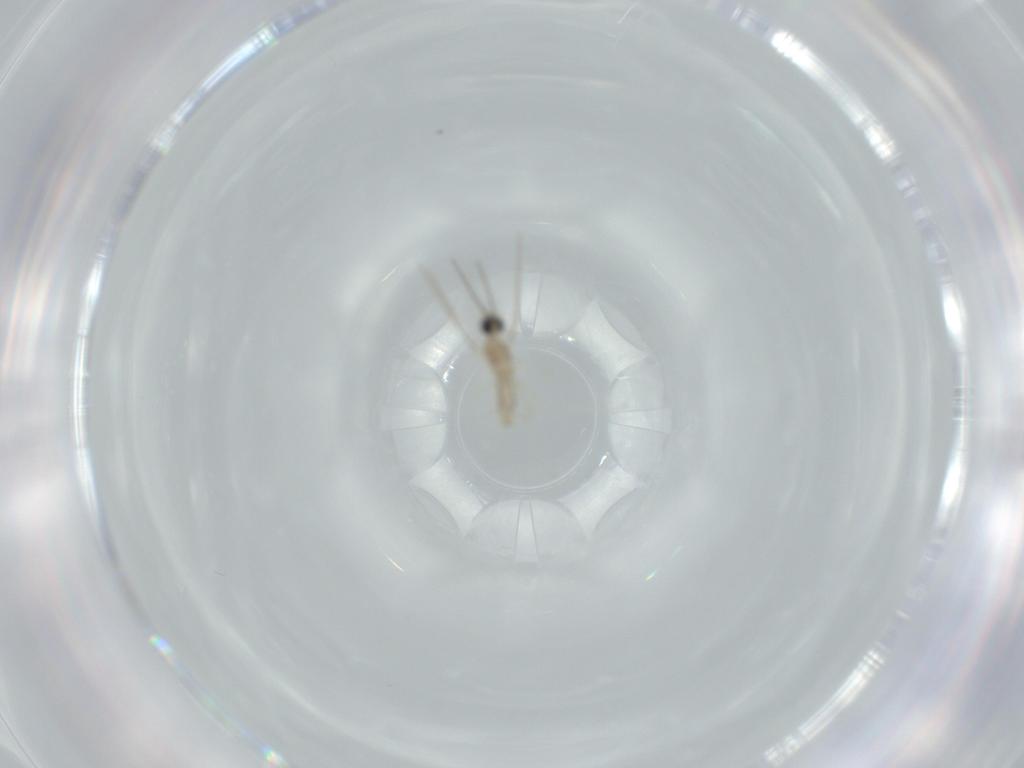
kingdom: Animalia
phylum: Arthropoda
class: Insecta
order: Diptera
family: Cecidomyiidae
